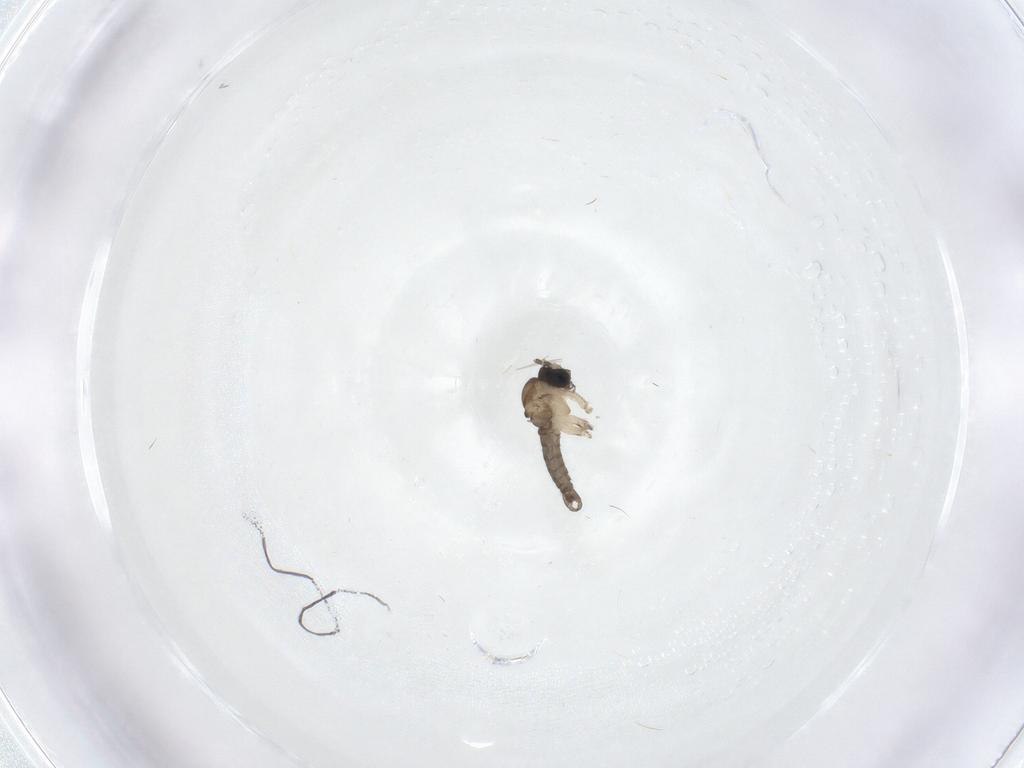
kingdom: Animalia
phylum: Arthropoda
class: Insecta
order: Diptera
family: Sciaridae
